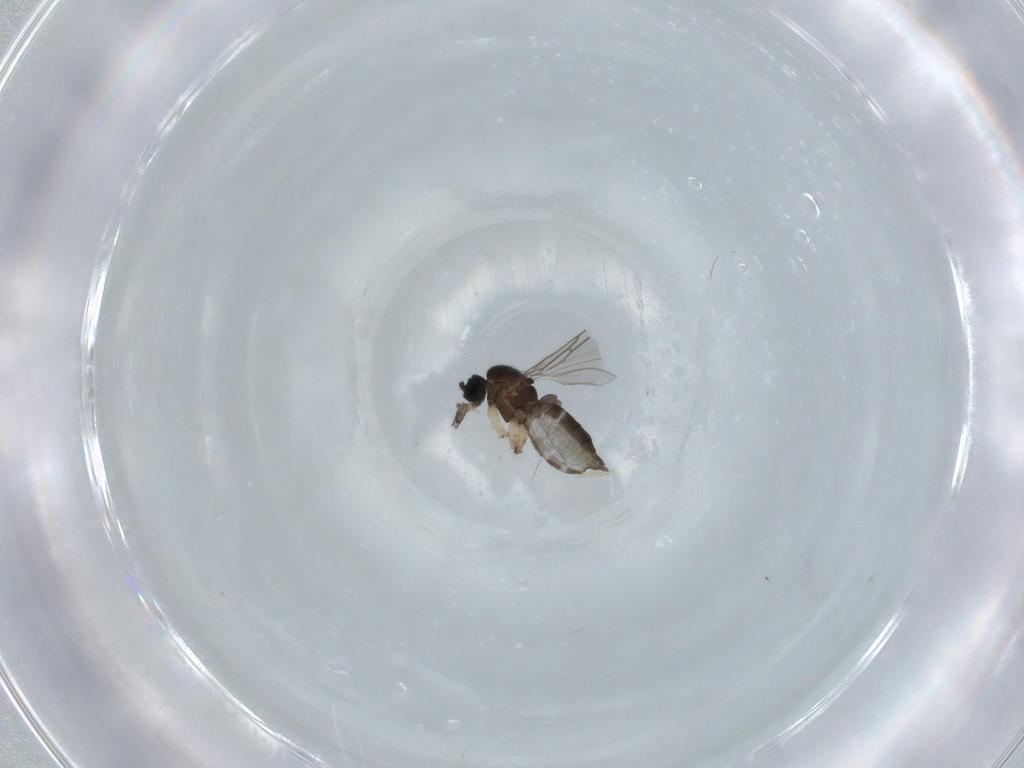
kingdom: Animalia
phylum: Arthropoda
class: Insecta
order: Diptera
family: Sciaridae
